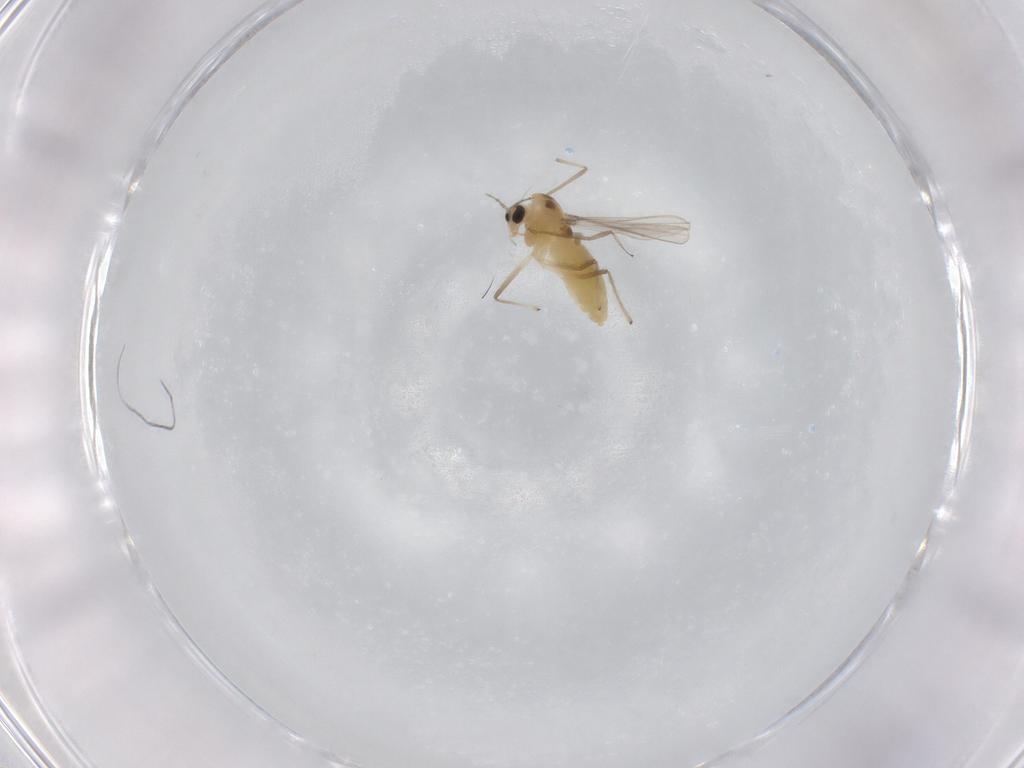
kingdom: Animalia
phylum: Arthropoda
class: Insecta
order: Diptera
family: Chironomidae
